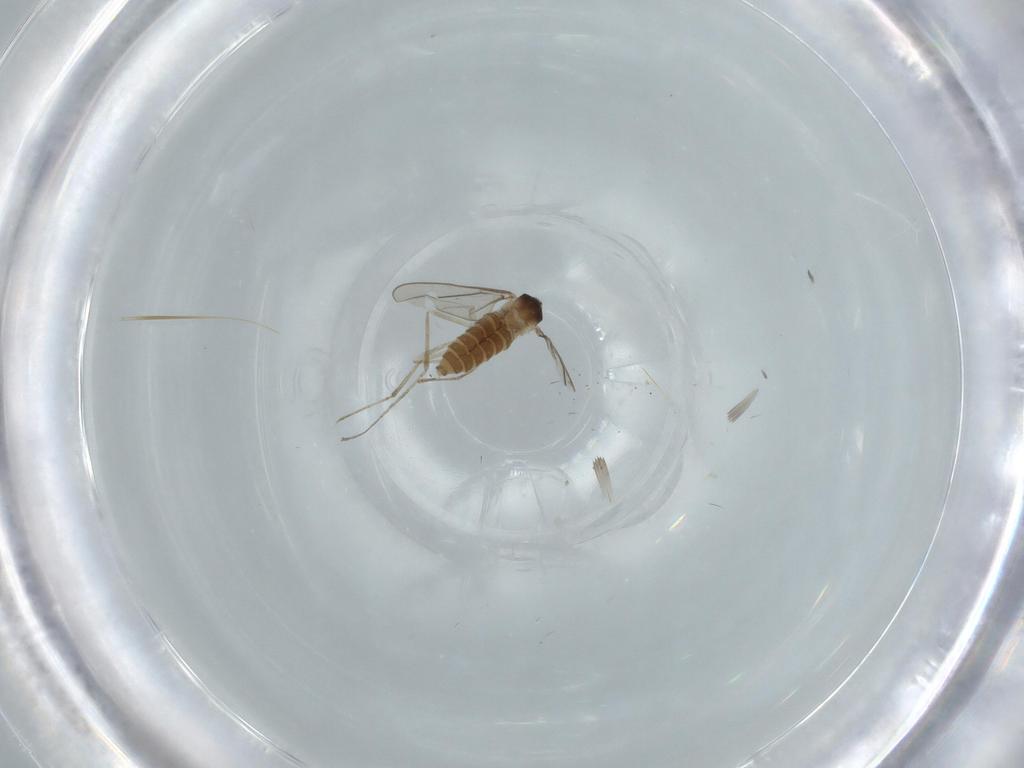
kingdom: Animalia
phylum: Arthropoda
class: Insecta
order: Diptera
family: Cecidomyiidae
